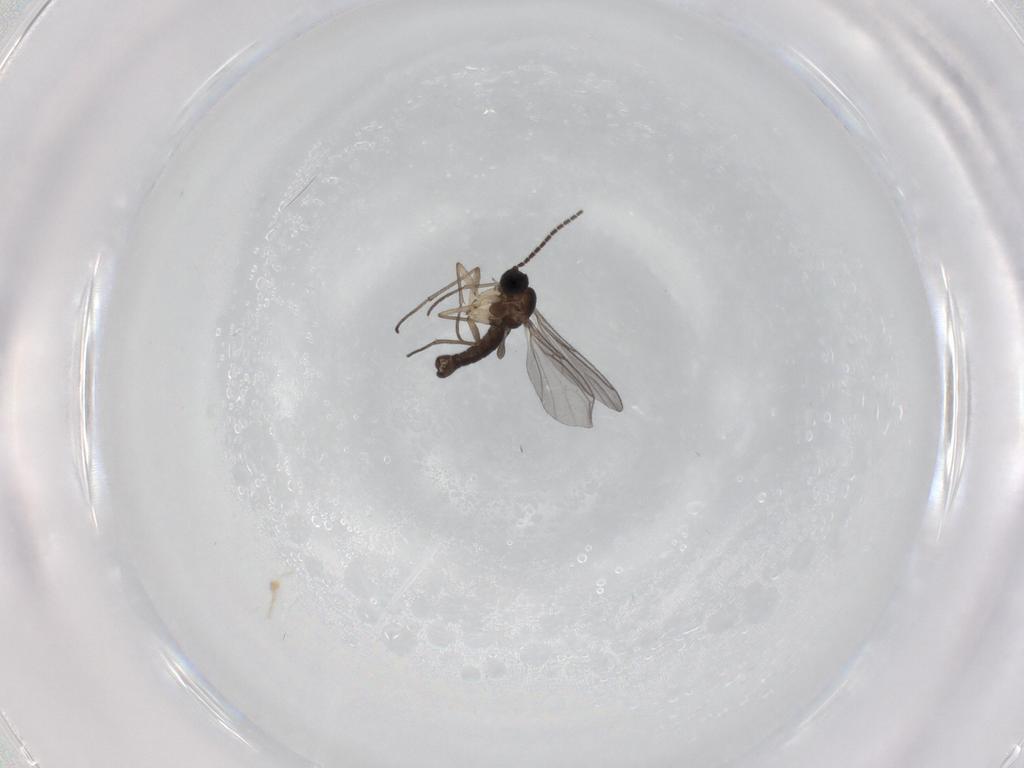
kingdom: Animalia
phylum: Arthropoda
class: Insecta
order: Diptera
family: Sciaridae
